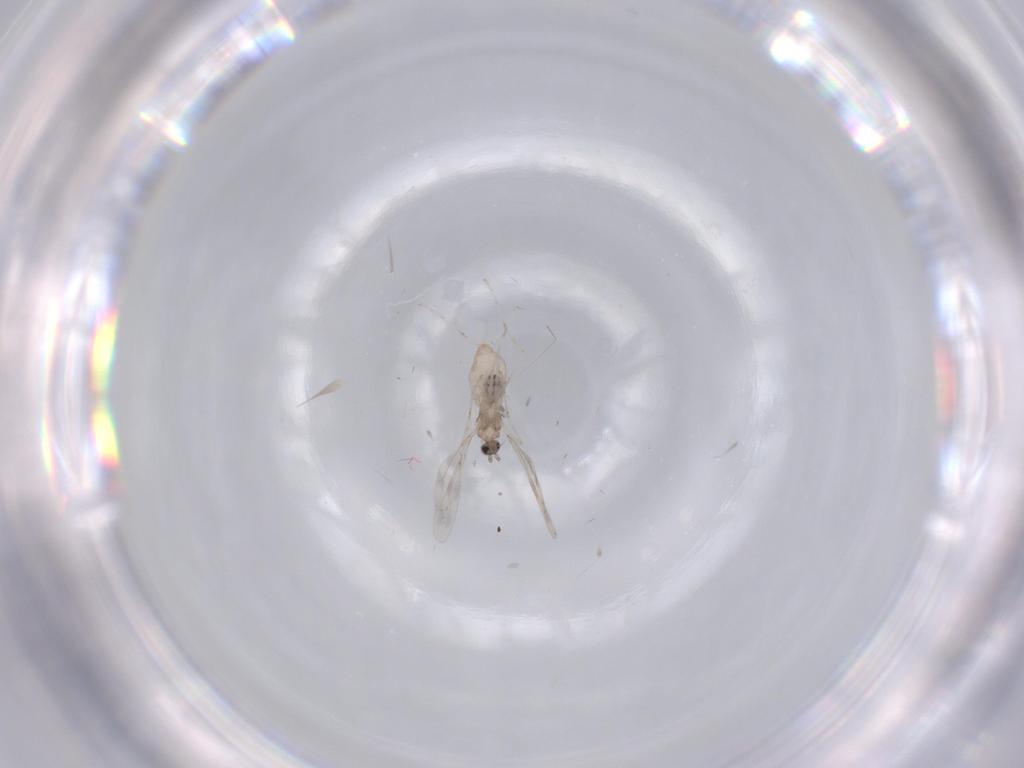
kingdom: Animalia
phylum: Arthropoda
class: Insecta
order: Diptera
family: Cecidomyiidae
